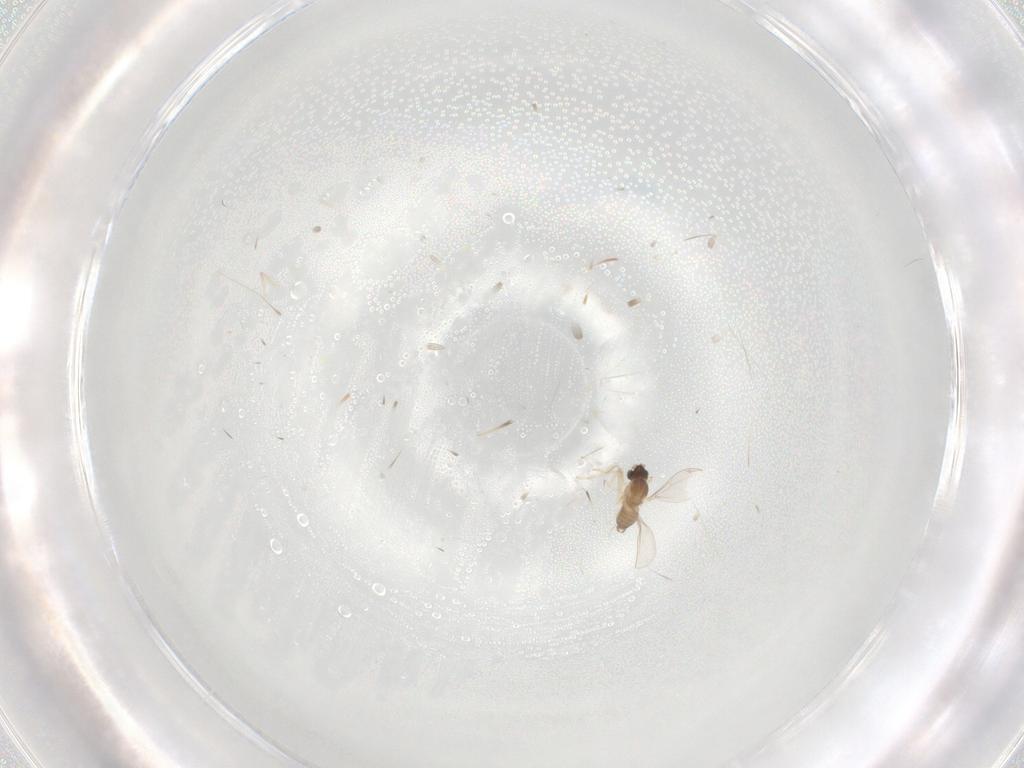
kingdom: Animalia
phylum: Arthropoda
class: Insecta
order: Diptera
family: Cecidomyiidae
